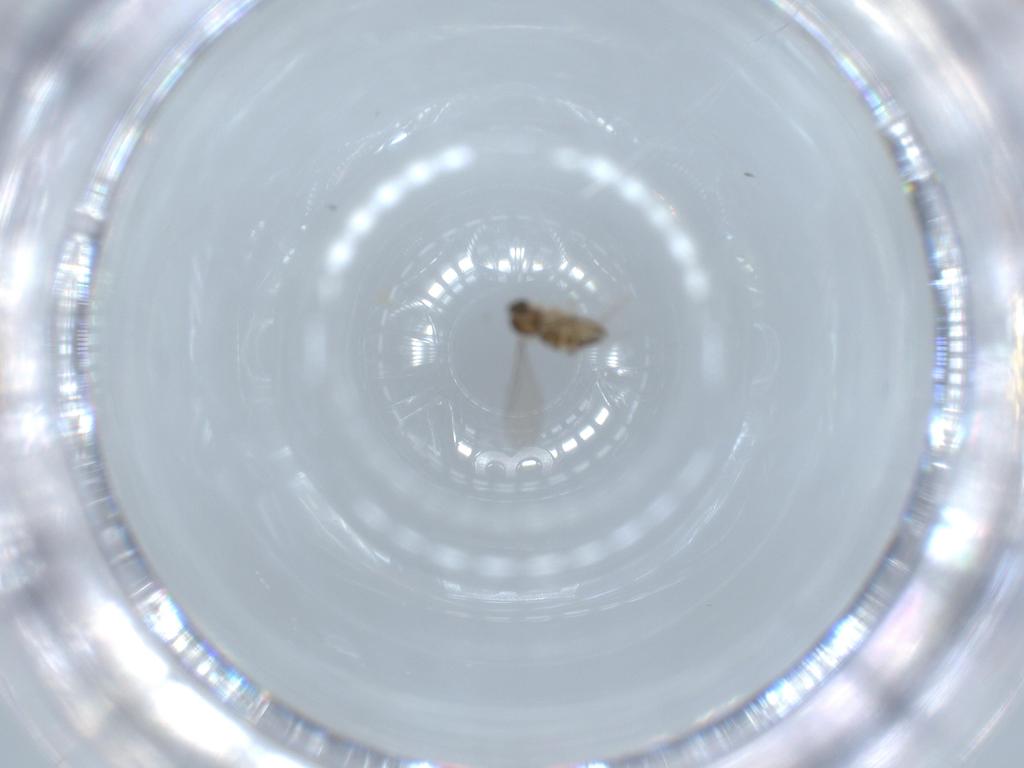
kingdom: Animalia
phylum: Arthropoda
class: Insecta
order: Diptera
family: Cecidomyiidae
